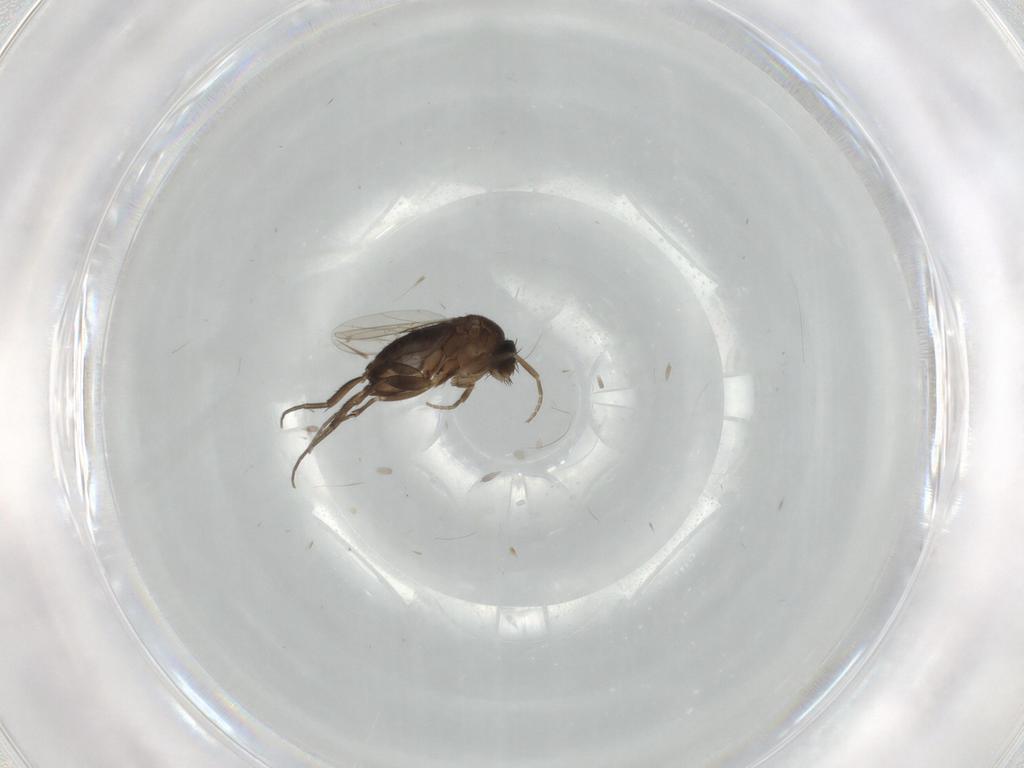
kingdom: Animalia
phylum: Arthropoda
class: Insecta
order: Diptera
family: Phoridae
